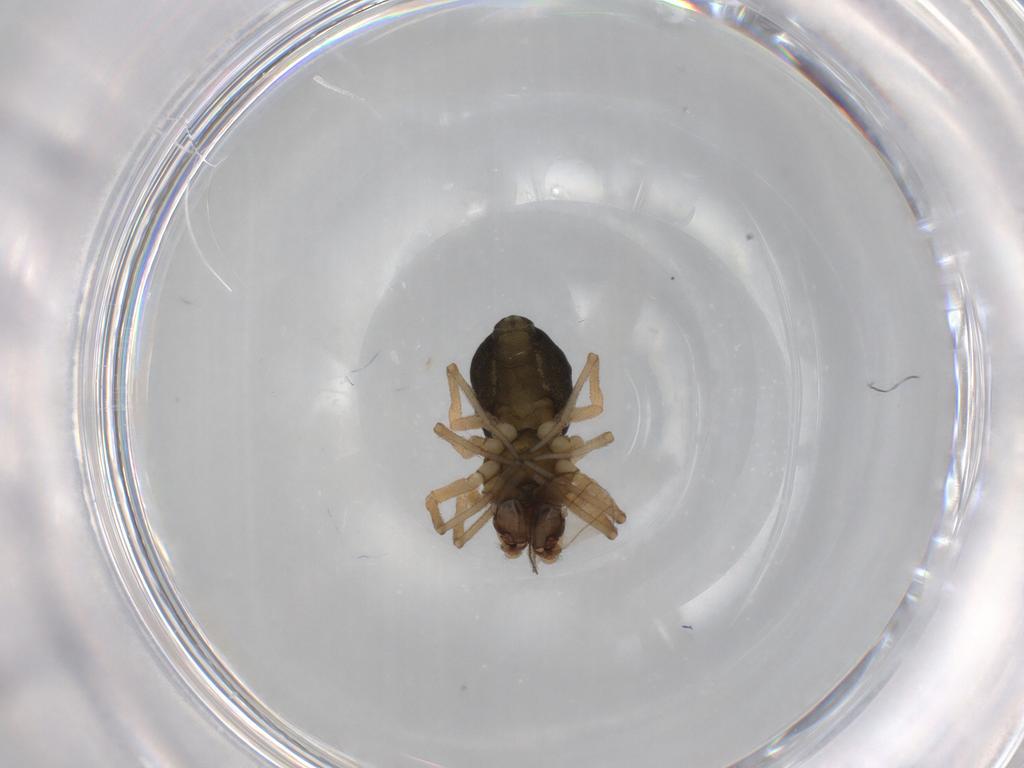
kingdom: Animalia
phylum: Arthropoda
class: Arachnida
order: Araneae
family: Linyphiidae
